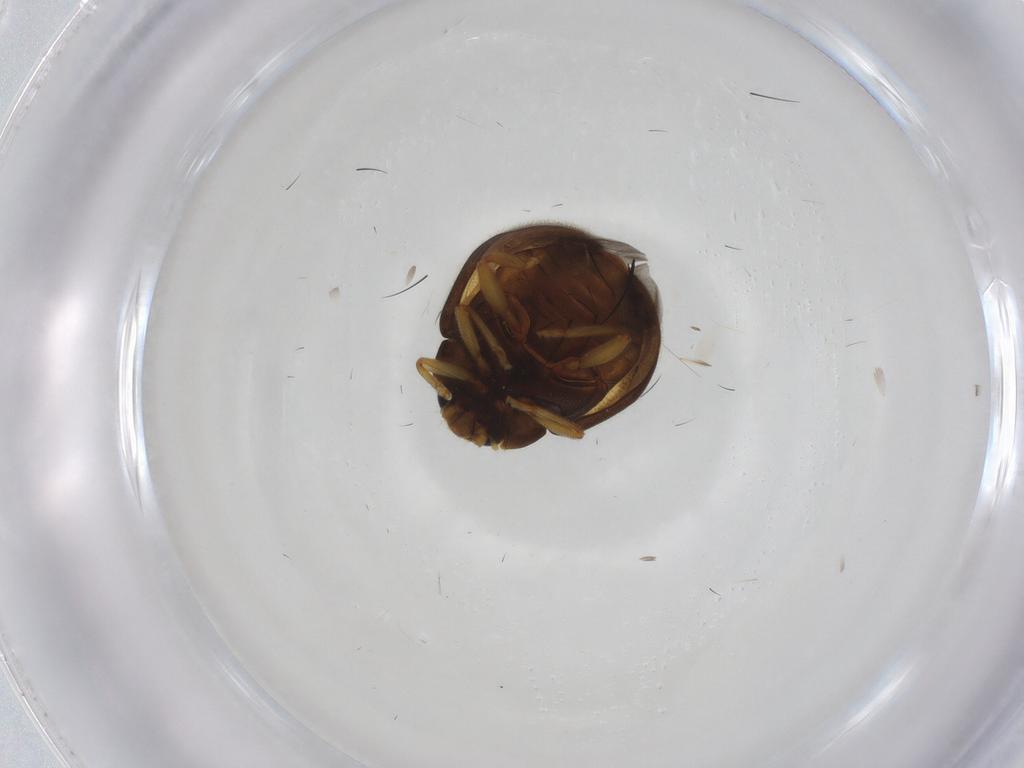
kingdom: Animalia
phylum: Arthropoda
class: Insecta
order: Coleoptera
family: Coccinellidae
